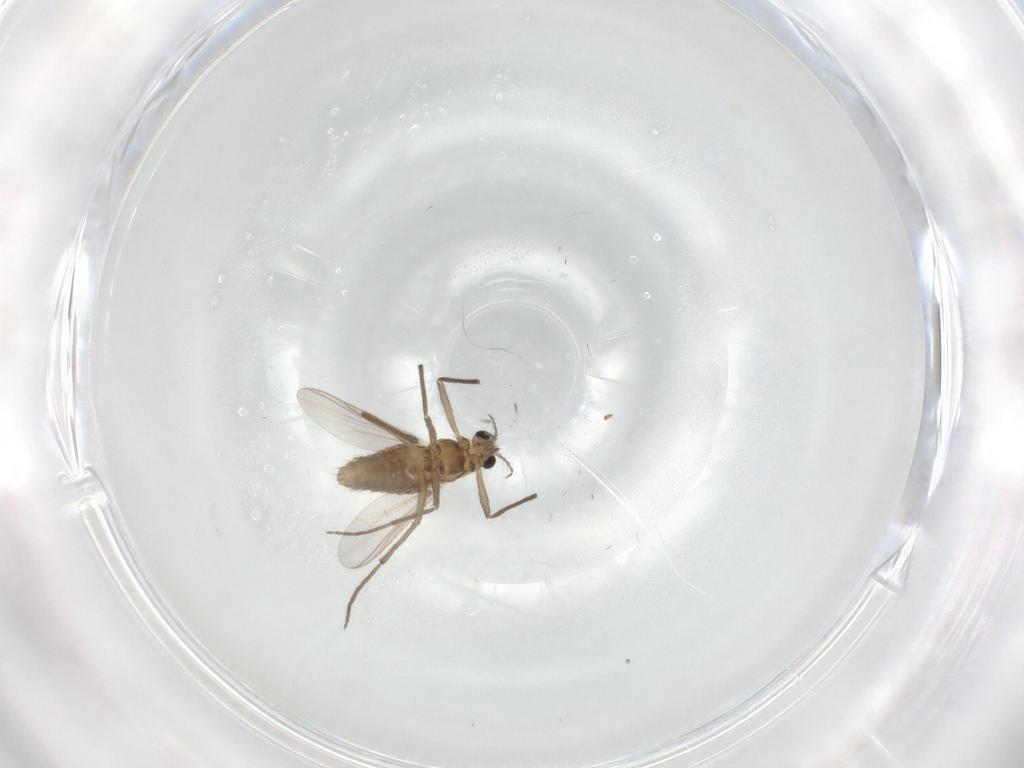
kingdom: Animalia
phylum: Arthropoda
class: Insecta
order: Diptera
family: Chironomidae
